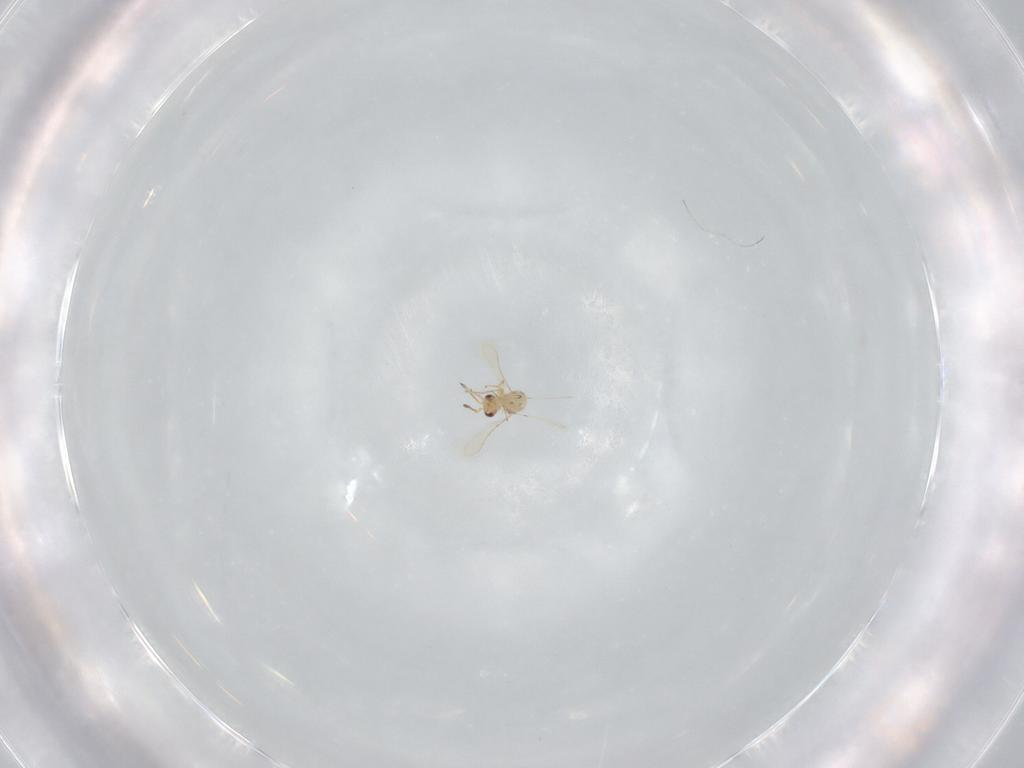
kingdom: Animalia
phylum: Arthropoda
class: Insecta
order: Hymenoptera
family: Mymaridae
